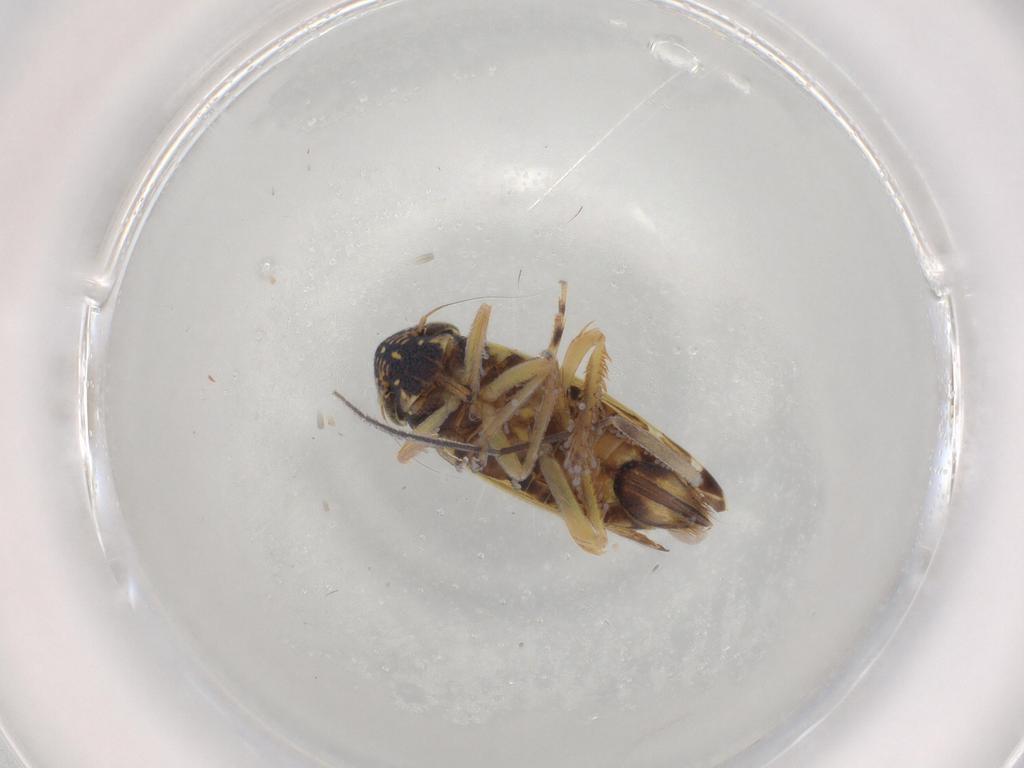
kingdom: Animalia
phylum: Arthropoda
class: Insecta
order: Hemiptera
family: Cicadellidae
